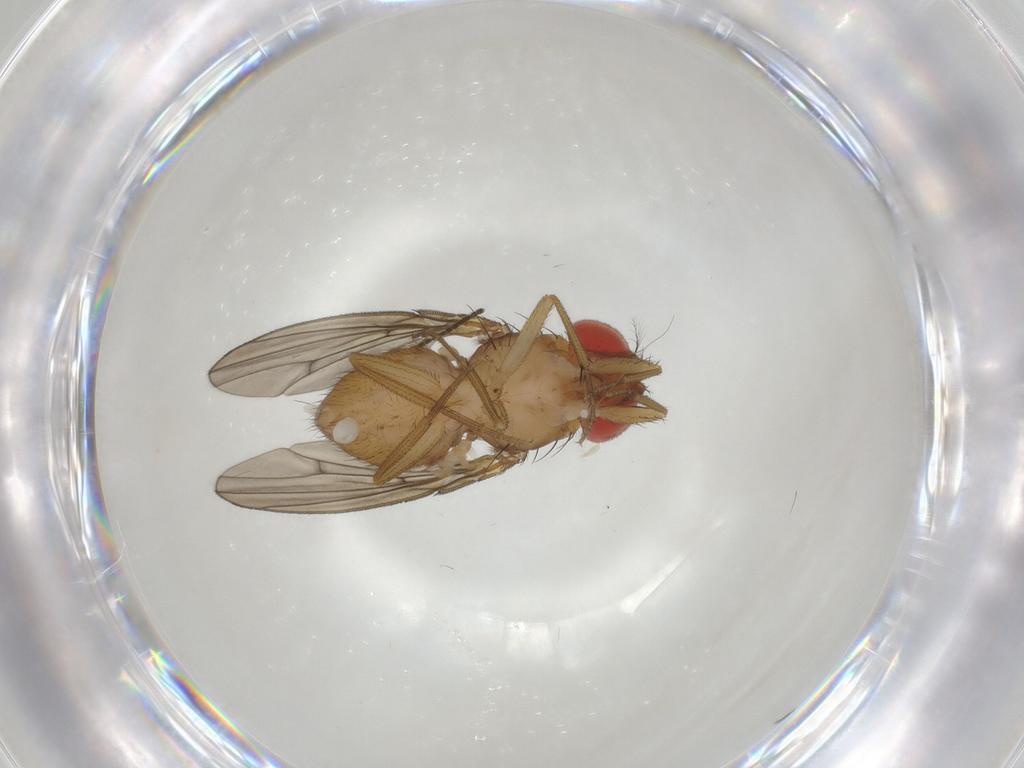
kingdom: Animalia
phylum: Arthropoda
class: Insecta
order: Diptera
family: Drosophilidae
